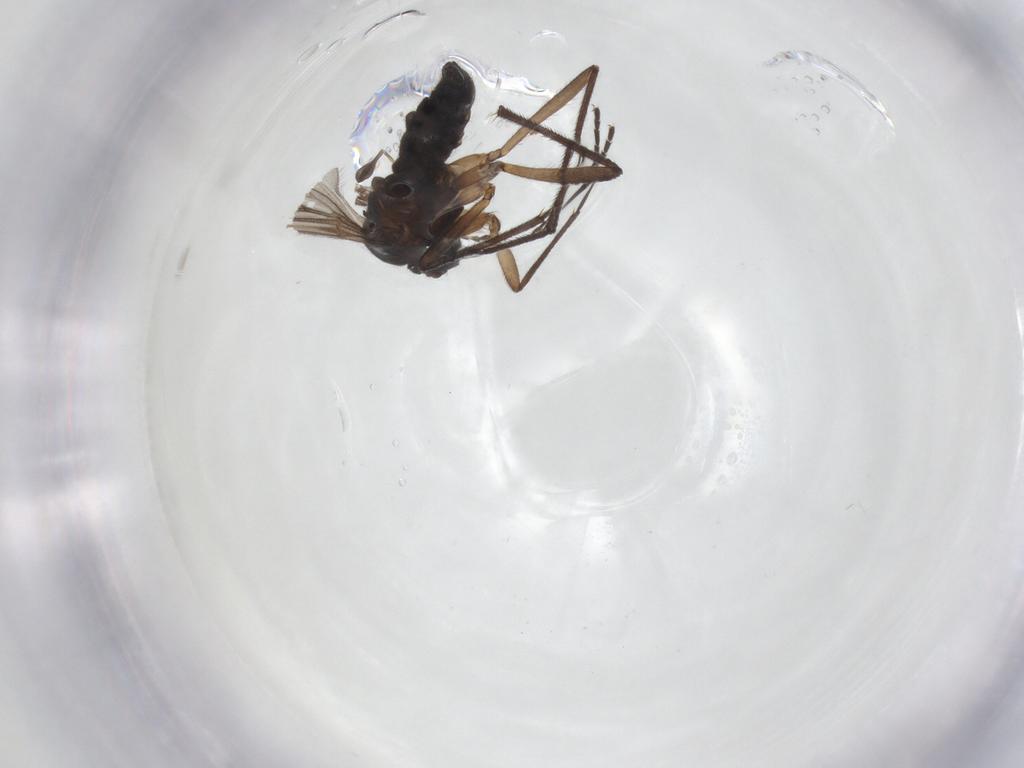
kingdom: Animalia
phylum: Arthropoda
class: Insecta
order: Diptera
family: Sciaridae
